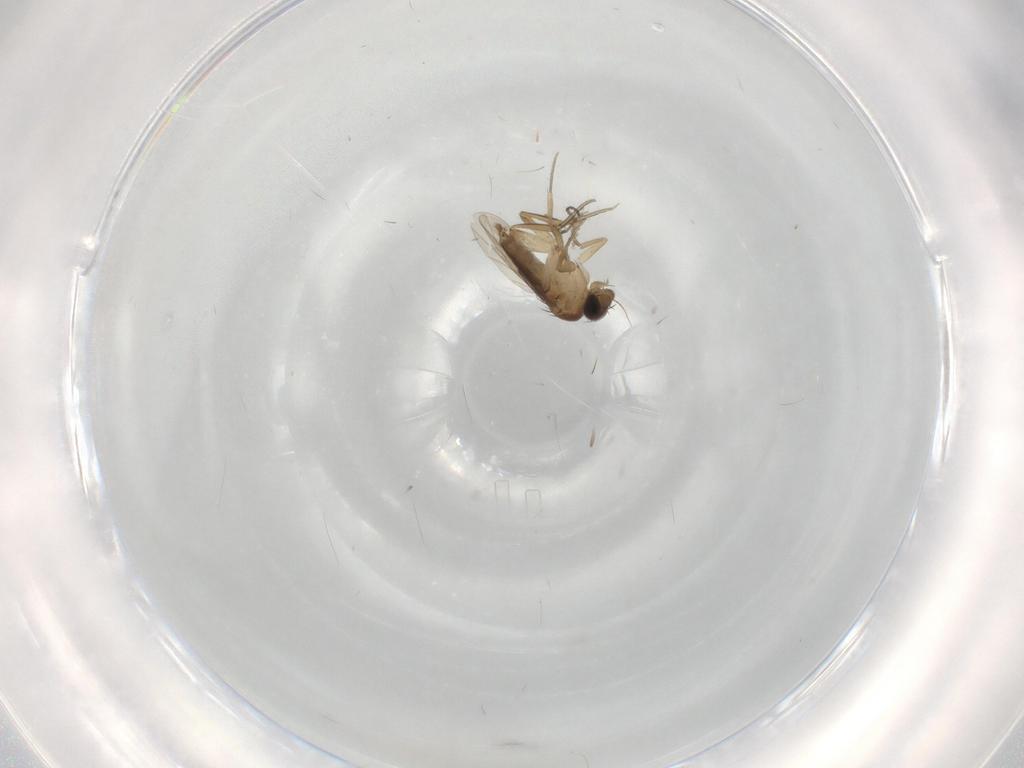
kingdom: Animalia
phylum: Arthropoda
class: Insecta
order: Diptera
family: Phoridae
